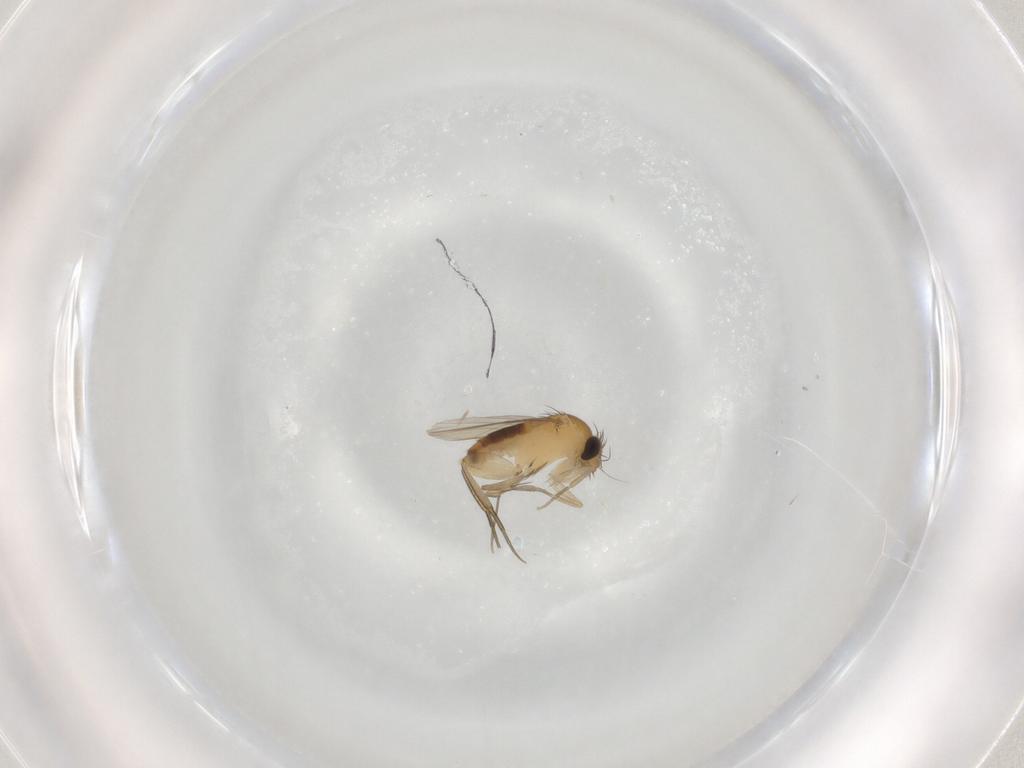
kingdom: Animalia
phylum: Arthropoda
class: Insecta
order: Diptera
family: Phoridae
